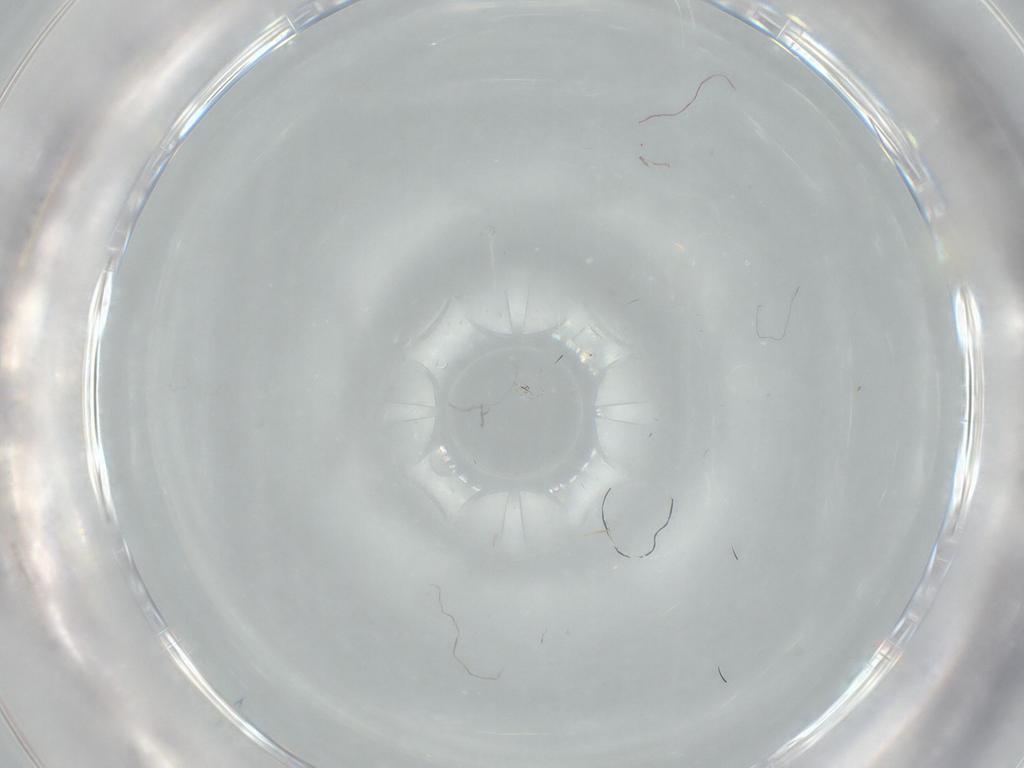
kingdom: Animalia
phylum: Arthropoda
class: Arachnida
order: Trombidiformes
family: Anystidae
